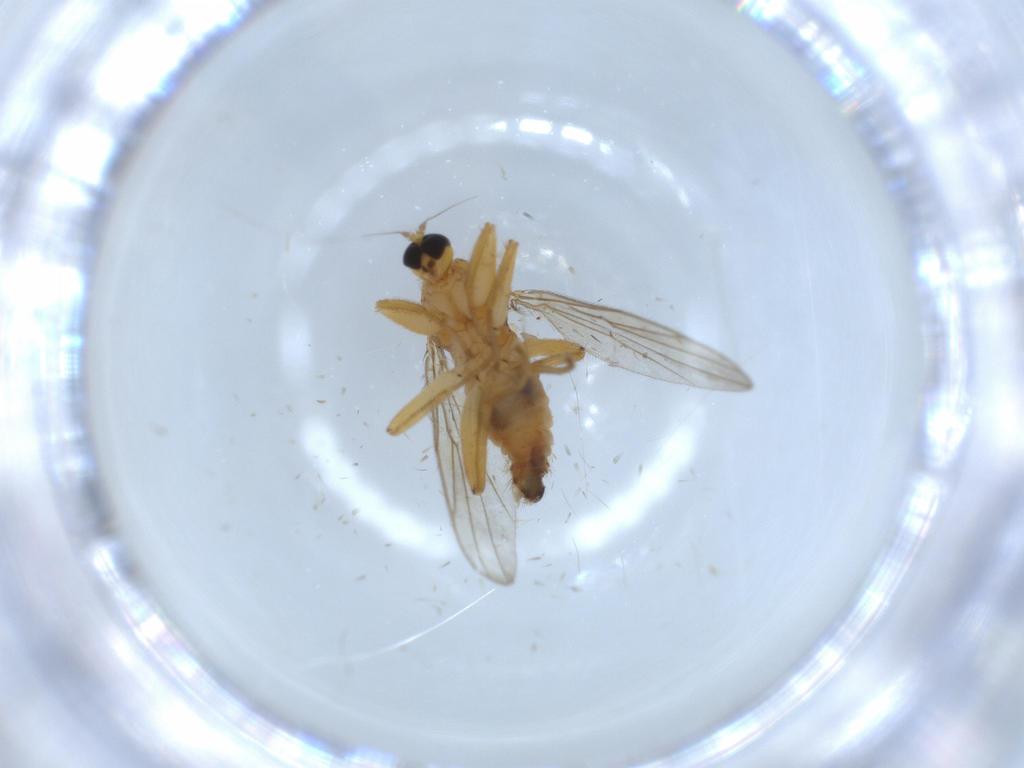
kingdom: Animalia
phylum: Arthropoda
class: Insecta
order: Diptera
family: Hybotidae
